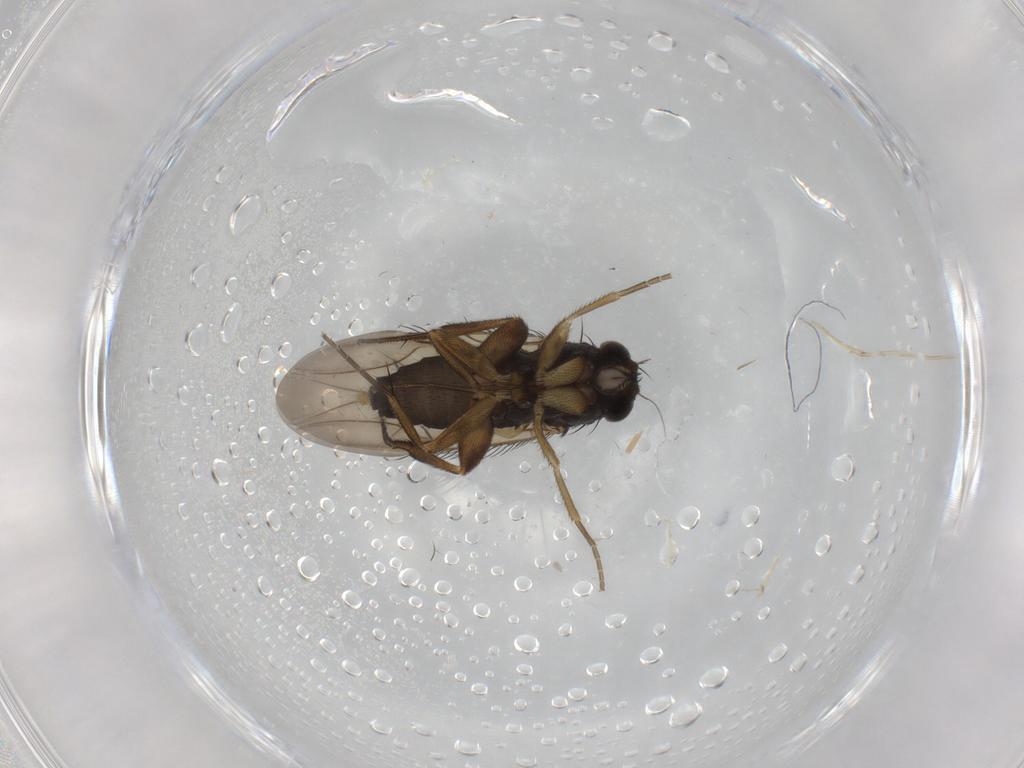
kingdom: Animalia
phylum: Arthropoda
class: Insecta
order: Diptera
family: Phoridae
